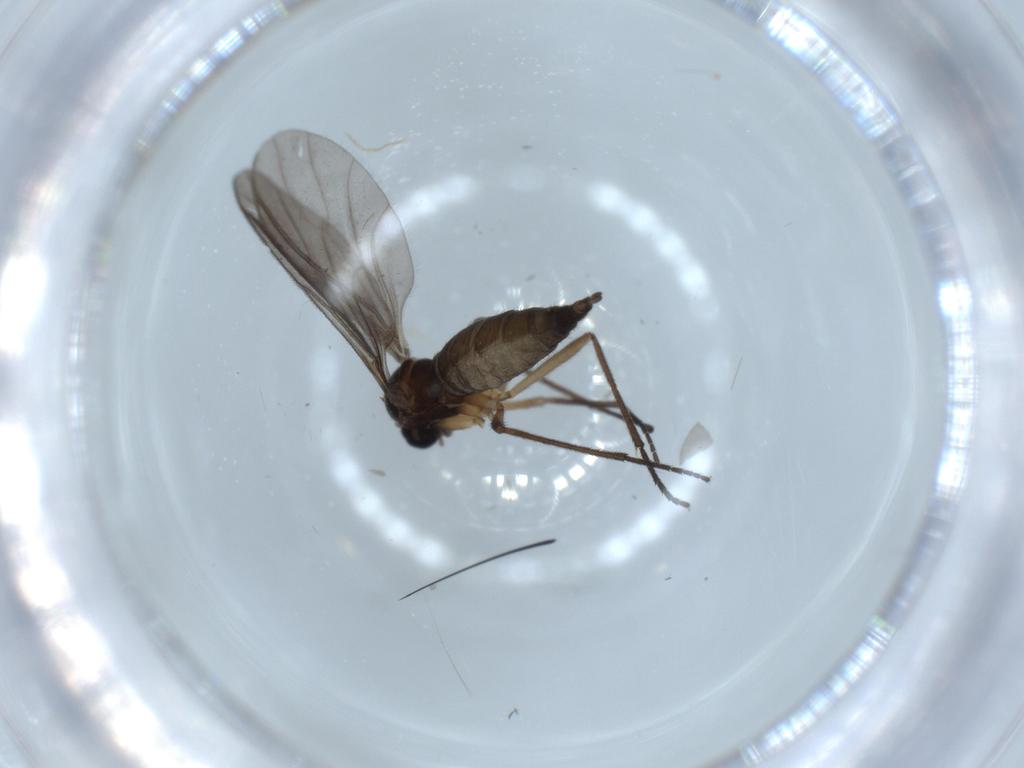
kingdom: Animalia
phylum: Arthropoda
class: Insecta
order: Diptera
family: Sciaridae
